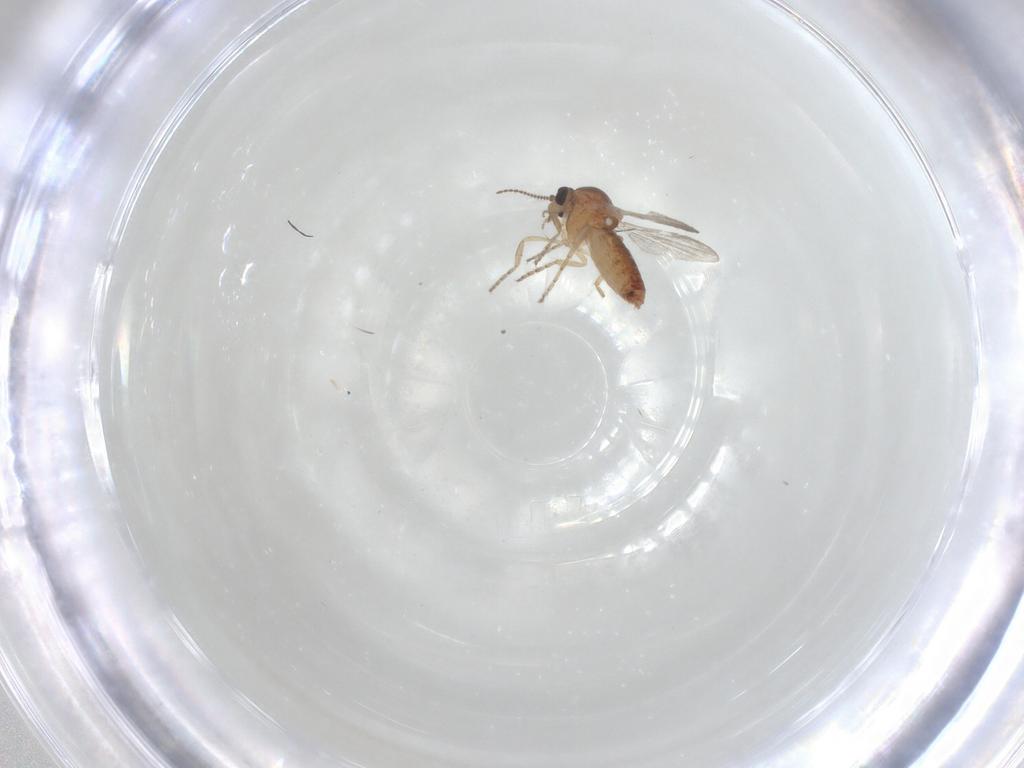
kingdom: Animalia
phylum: Arthropoda
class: Insecta
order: Diptera
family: Ceratopogonidae
